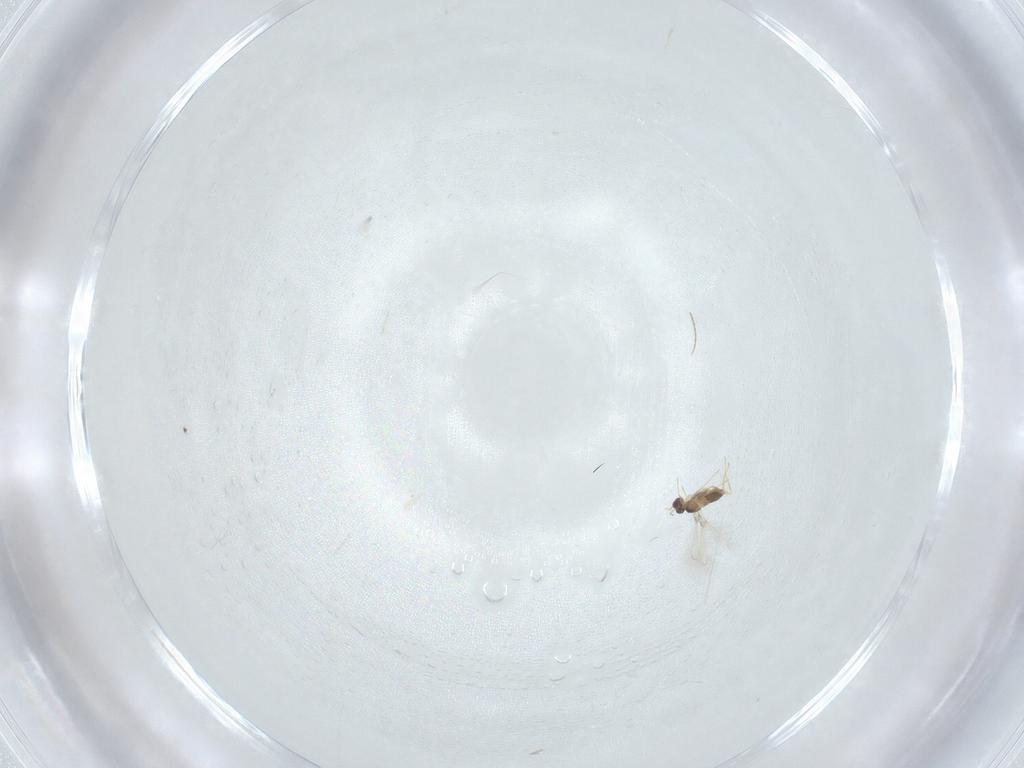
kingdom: Animalia
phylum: Arthropoda
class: Insecta
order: Hymenoptera
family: Mymaridae
